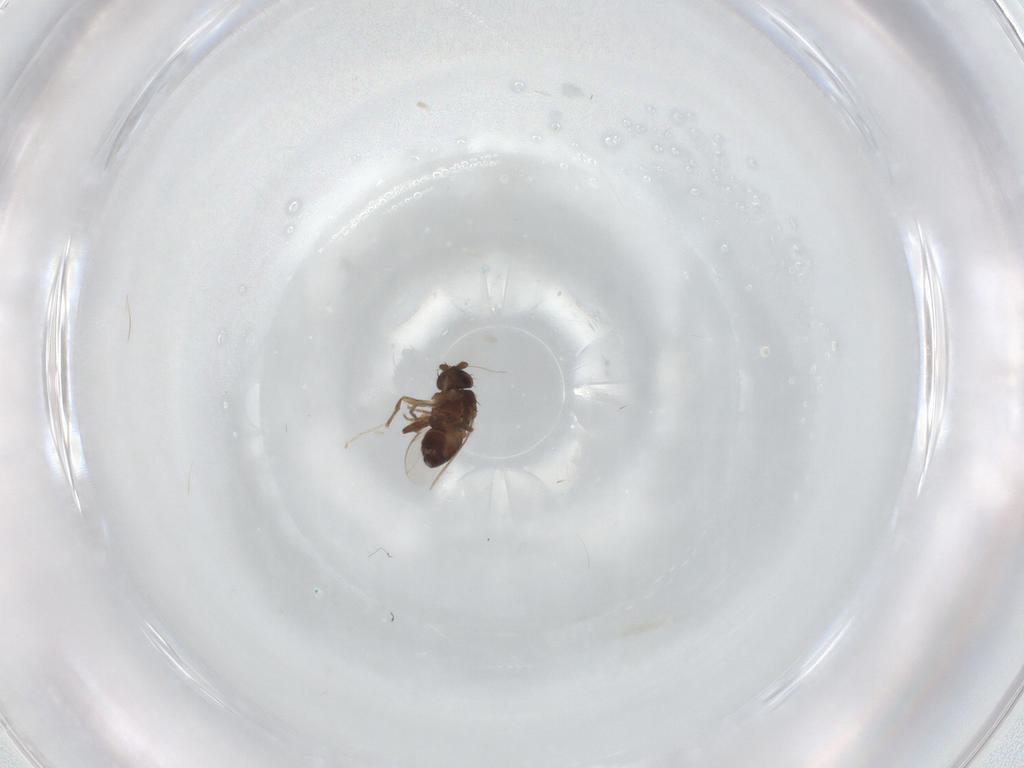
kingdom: Animalia
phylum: Arthropoda
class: Insecta
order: Diptera
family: Sphaeroceridae
